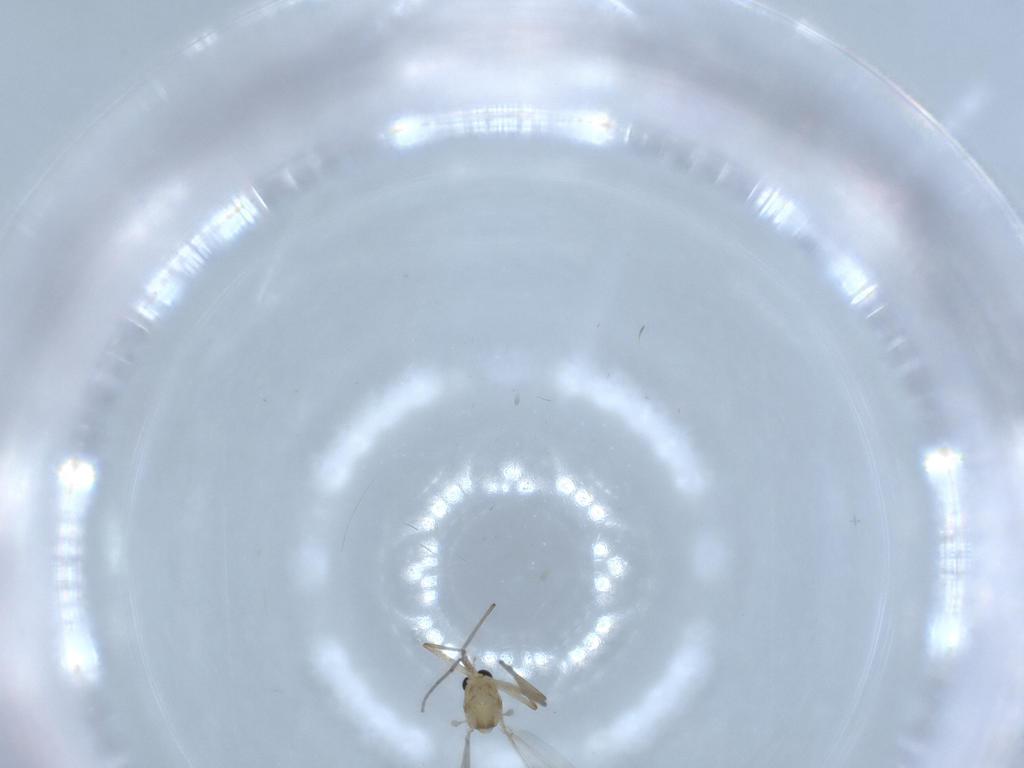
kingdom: Animalia
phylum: Arthropoda
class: Insecta
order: Diptera
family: Chironomidae
